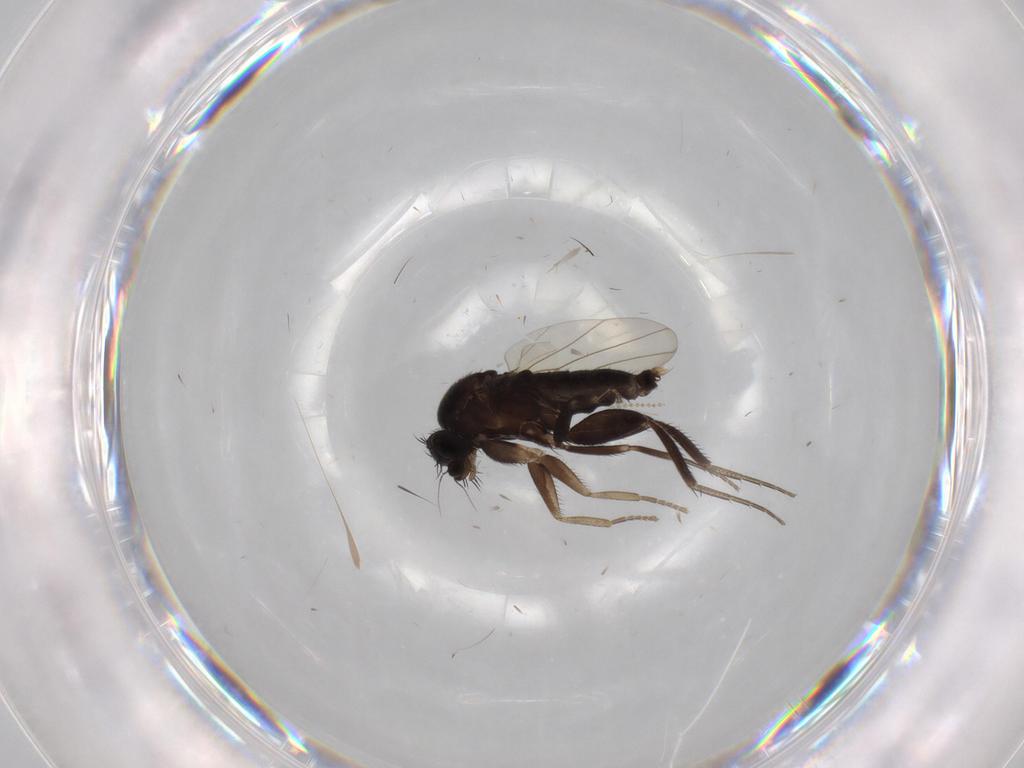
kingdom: Animalia
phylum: Arthropoda
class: Insecta
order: Diptera
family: Phoridae
